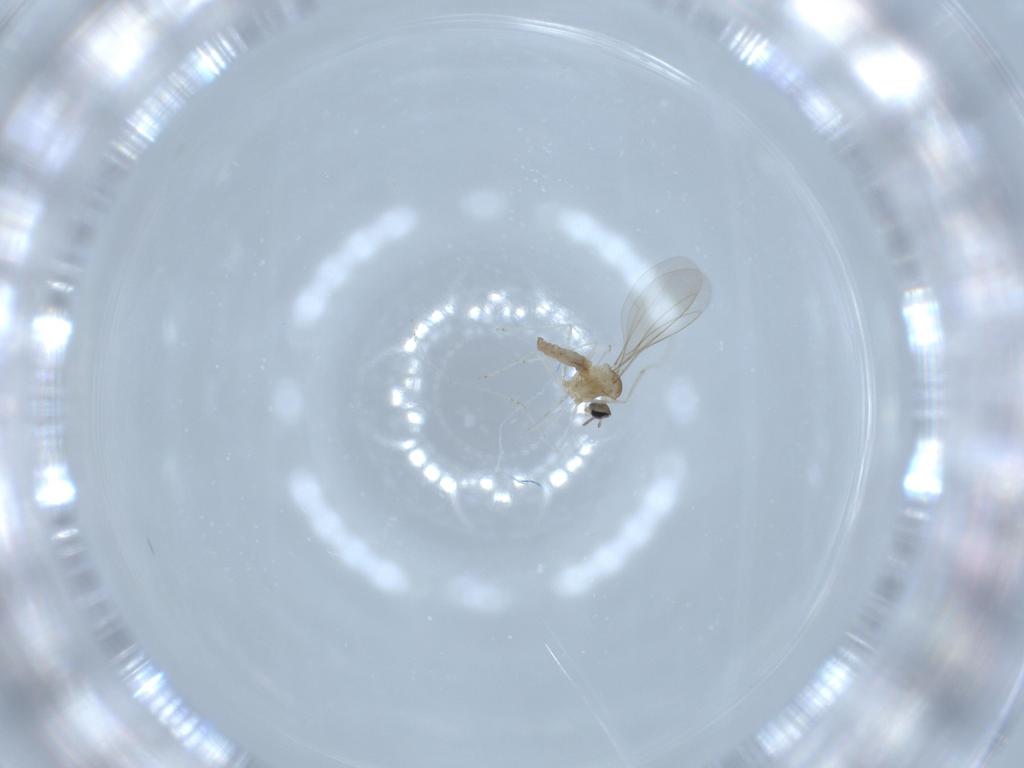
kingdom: Animalia
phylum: Arthropoda
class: Insecta
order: Diptera
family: Cecidomyiidae
